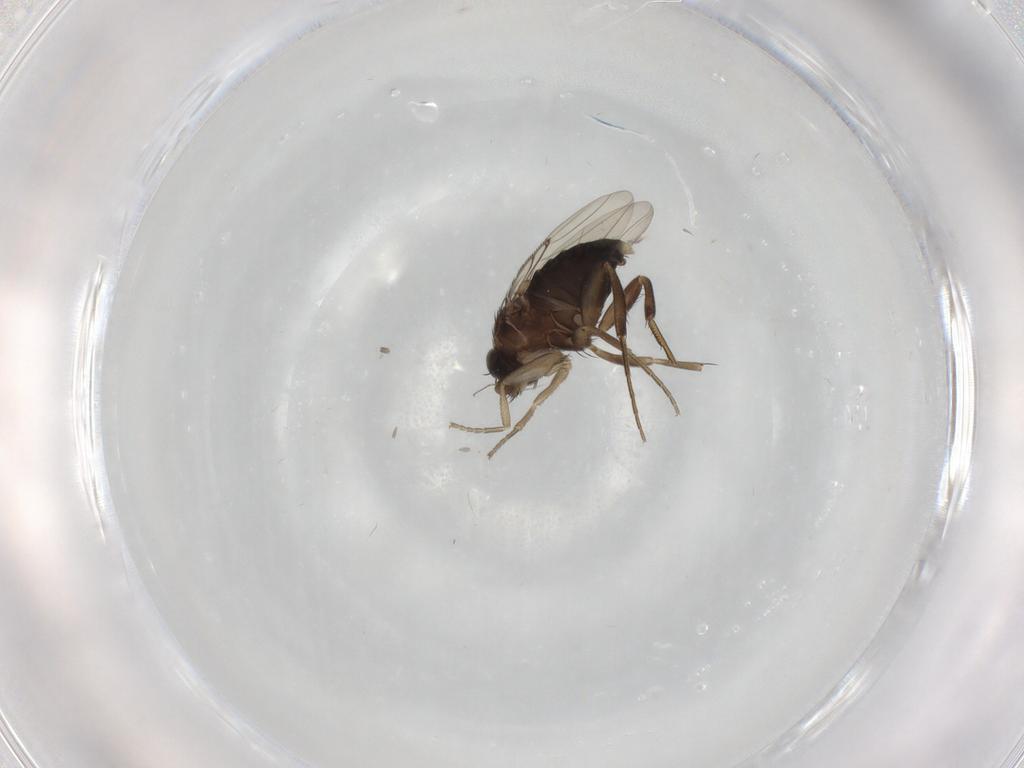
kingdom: Animalia
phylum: Arthropoda
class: Insecta
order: Diptera
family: Phoridae
